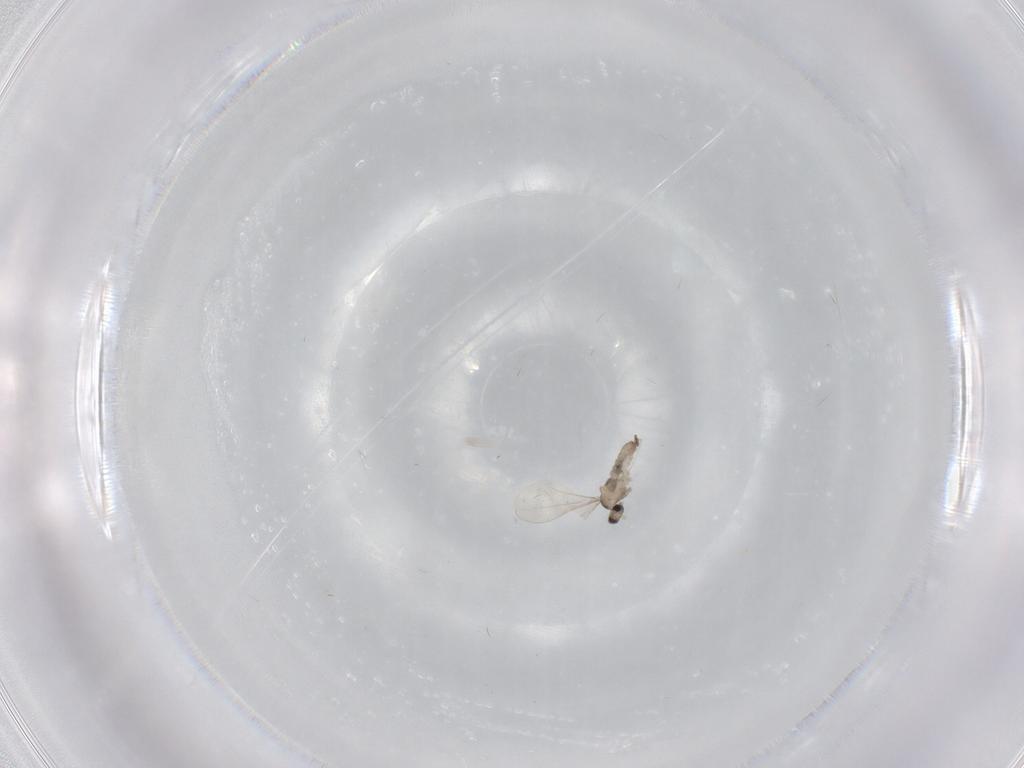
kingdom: Animalia
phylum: Arthropoda
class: Insecta
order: Diptera
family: Cecidomyiidae
